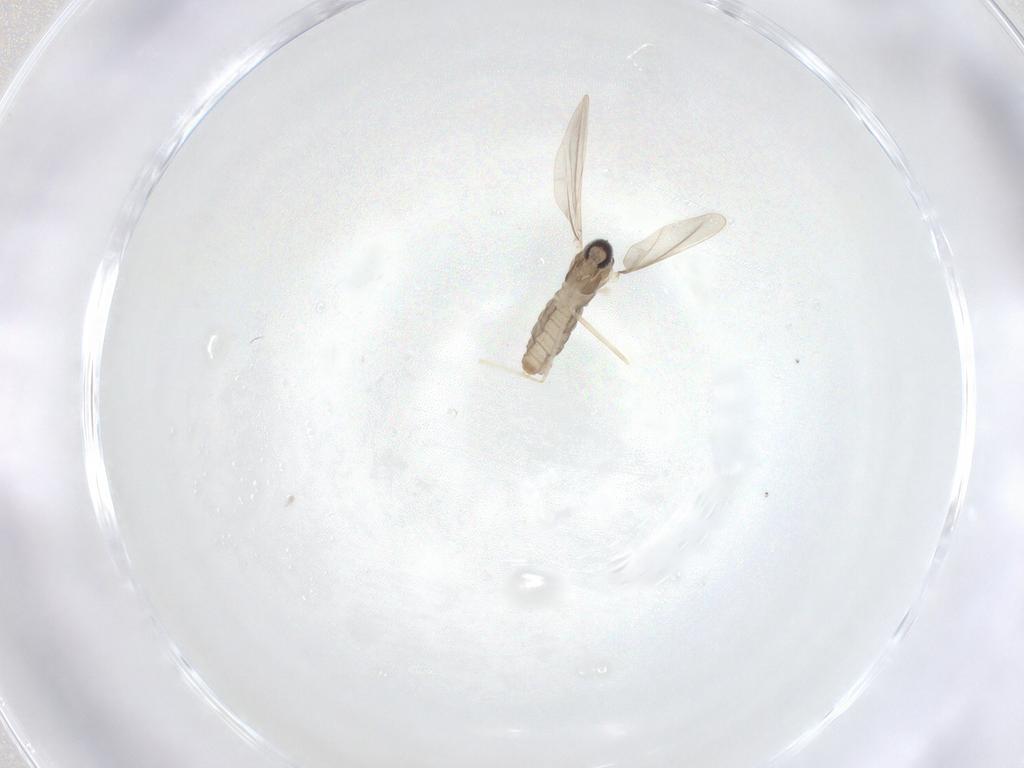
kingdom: Animalia
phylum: Arthropoda
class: Insecta
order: Diptera
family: Cecidomyiidae
